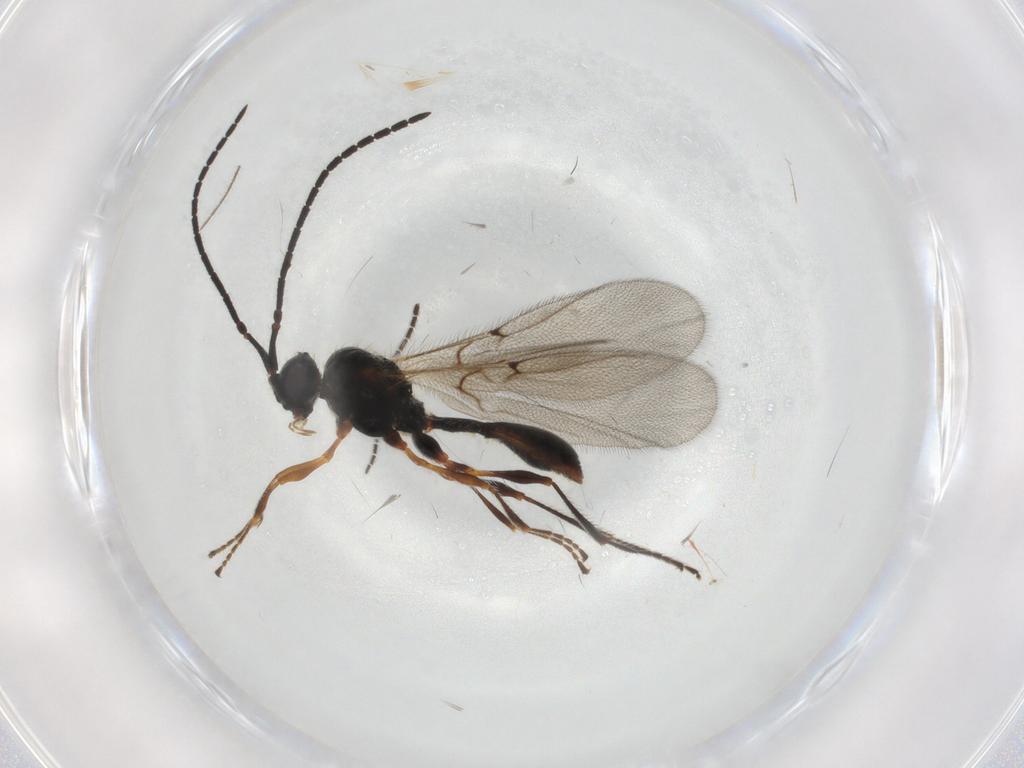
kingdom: Animalia
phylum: Arthropoda
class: Insecta
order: Hymenoptera
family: Diapriidae
